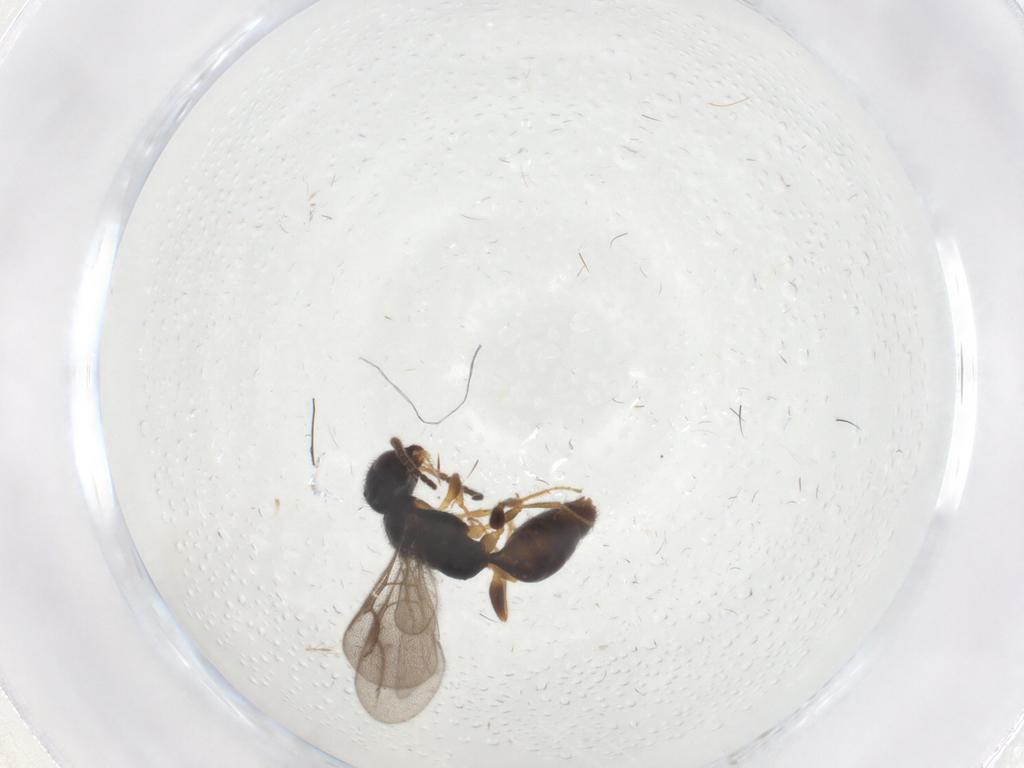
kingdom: Animalia
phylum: Arthropoda
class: Insecta
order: Hymenoptera
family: Bethylidae
